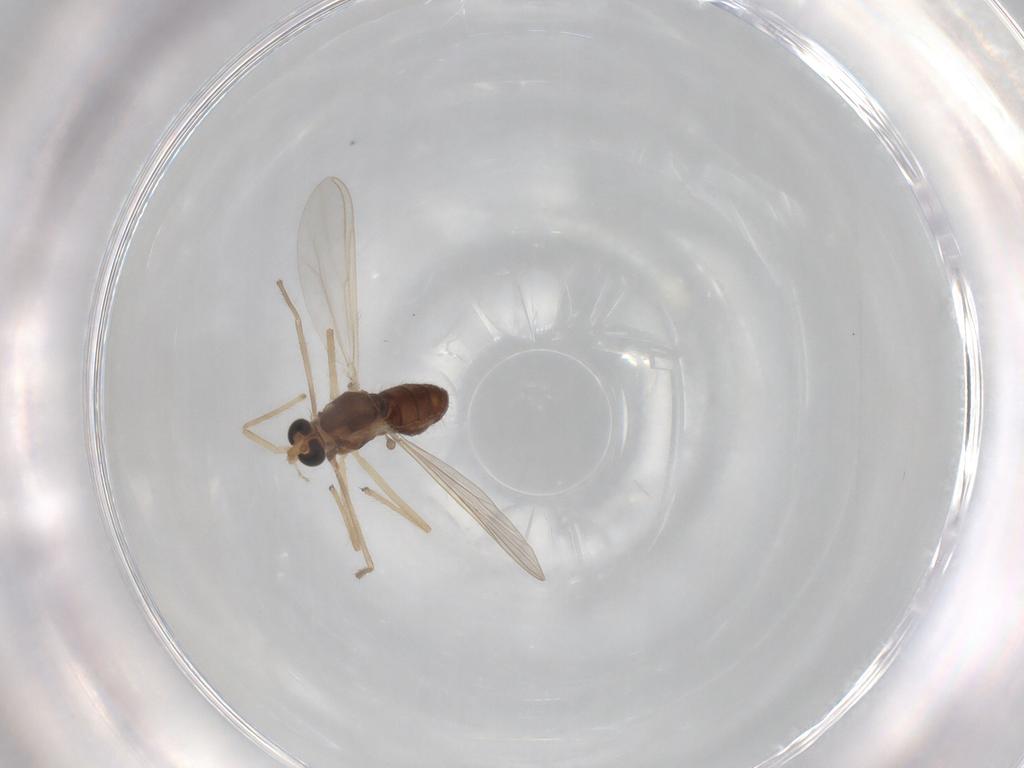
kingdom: Animalia
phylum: Arthropoda
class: Insecta
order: Diptera
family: Chironomidae
